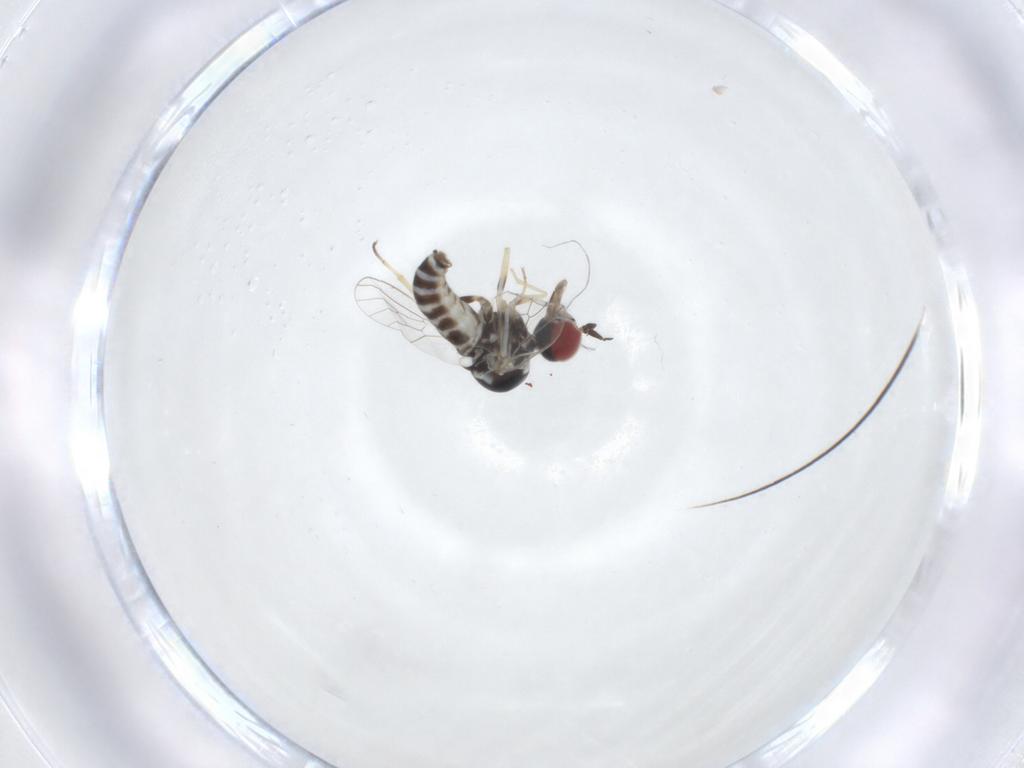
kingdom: Animalia
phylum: Arthropoda
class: Insecta
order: Diptera
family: Mythicomyiidae
